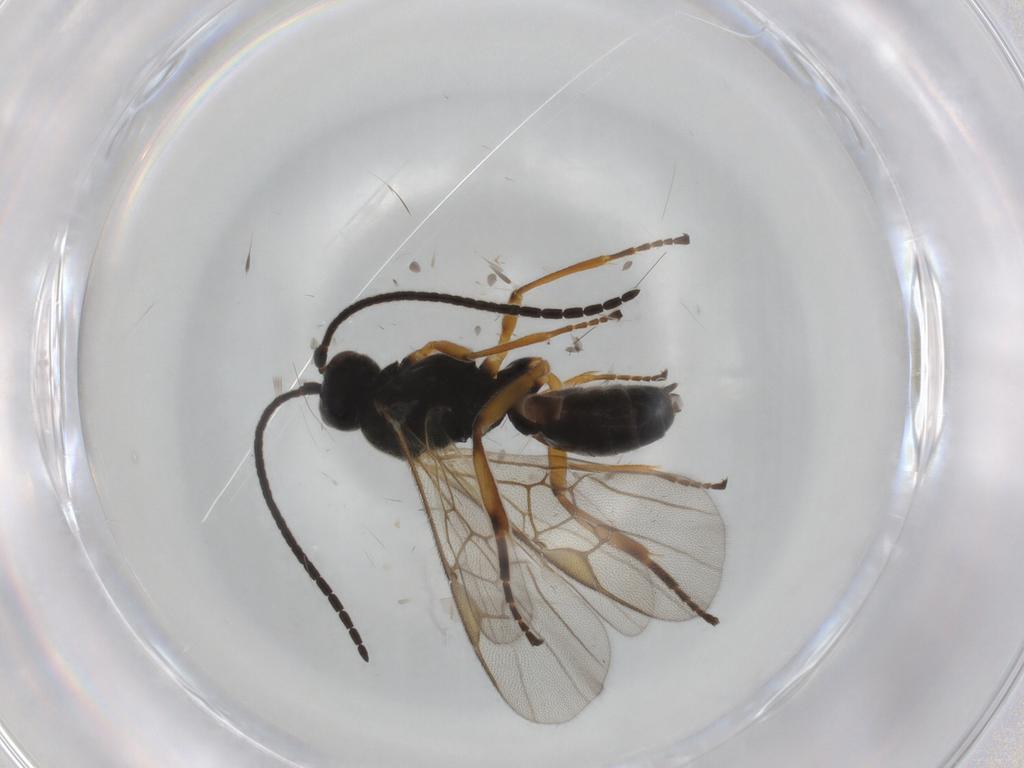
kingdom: Animalia
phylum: Arthropoda
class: Insecta
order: Hymenoptera
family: Braconidae
